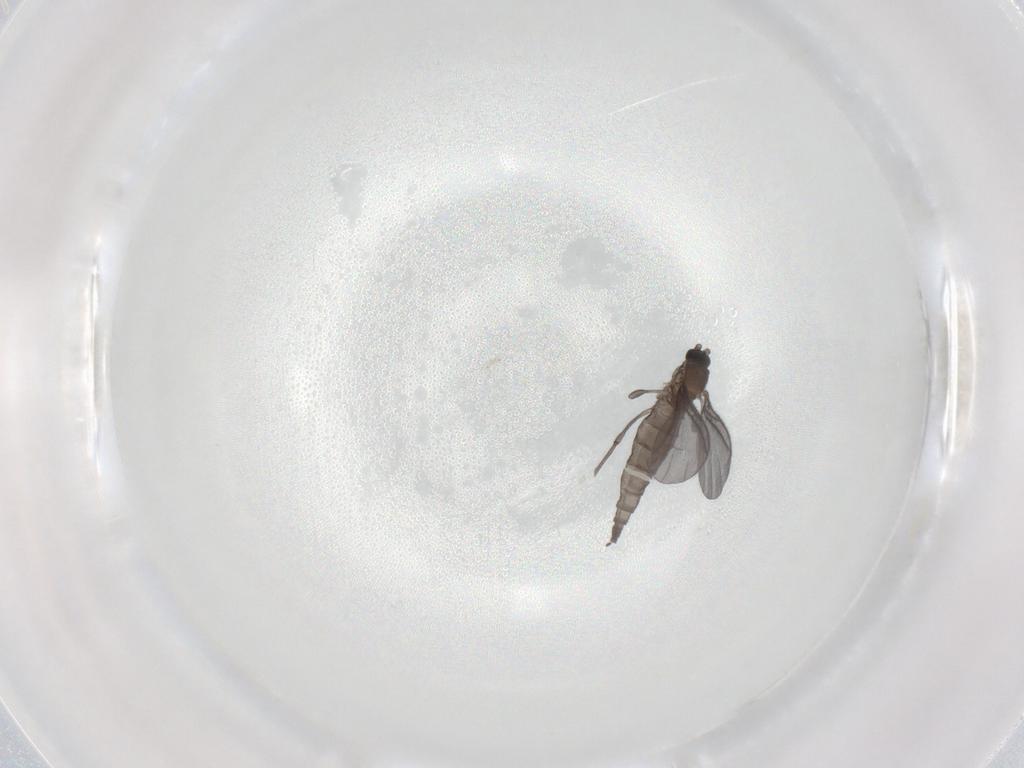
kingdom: Animalia
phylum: Arthropoda
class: Insecta
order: Diptera
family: Sciaridae
